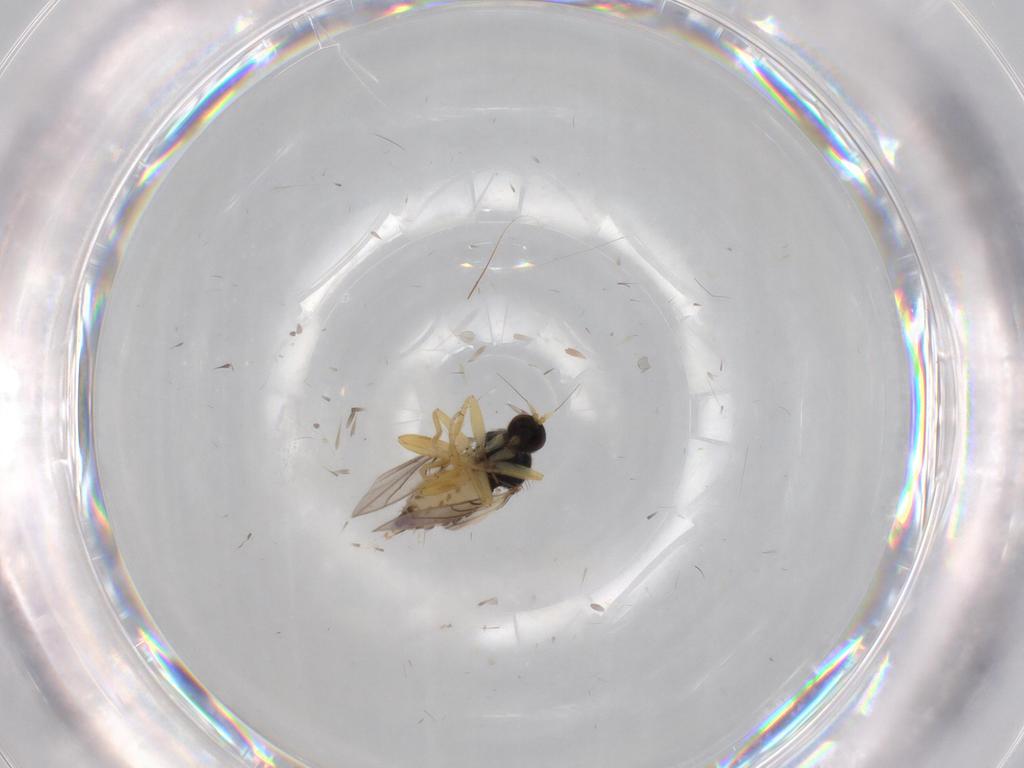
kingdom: Animalia
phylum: Arthropoda
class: Insecta
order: Diptera
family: Hybotidae
